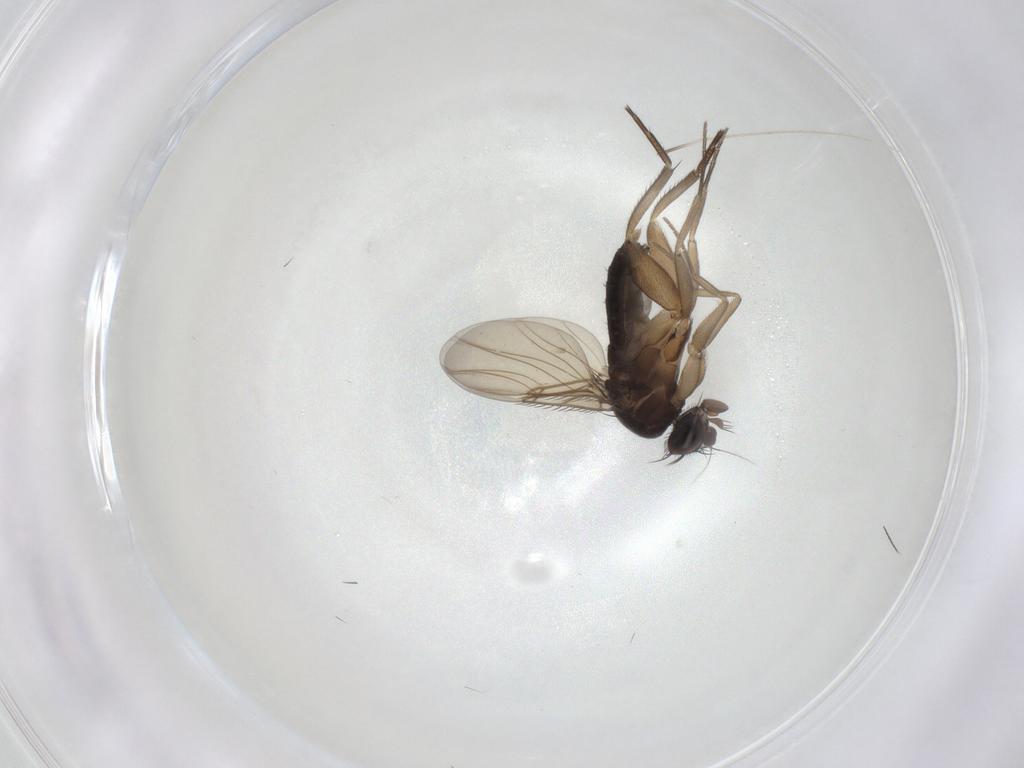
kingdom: Animalia
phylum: Arthropoda
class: Insecta
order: Diptera
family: Phoridae
